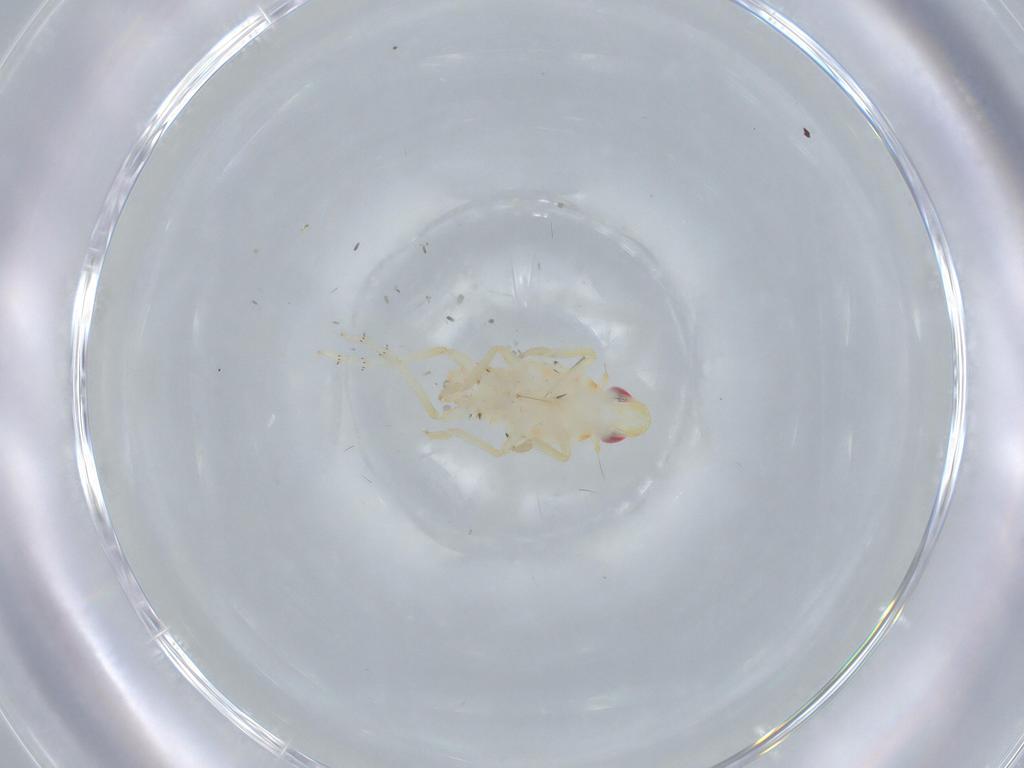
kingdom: Animalia
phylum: Arthropoda
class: Insecta
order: Hemiptera
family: Tropiduchidae
